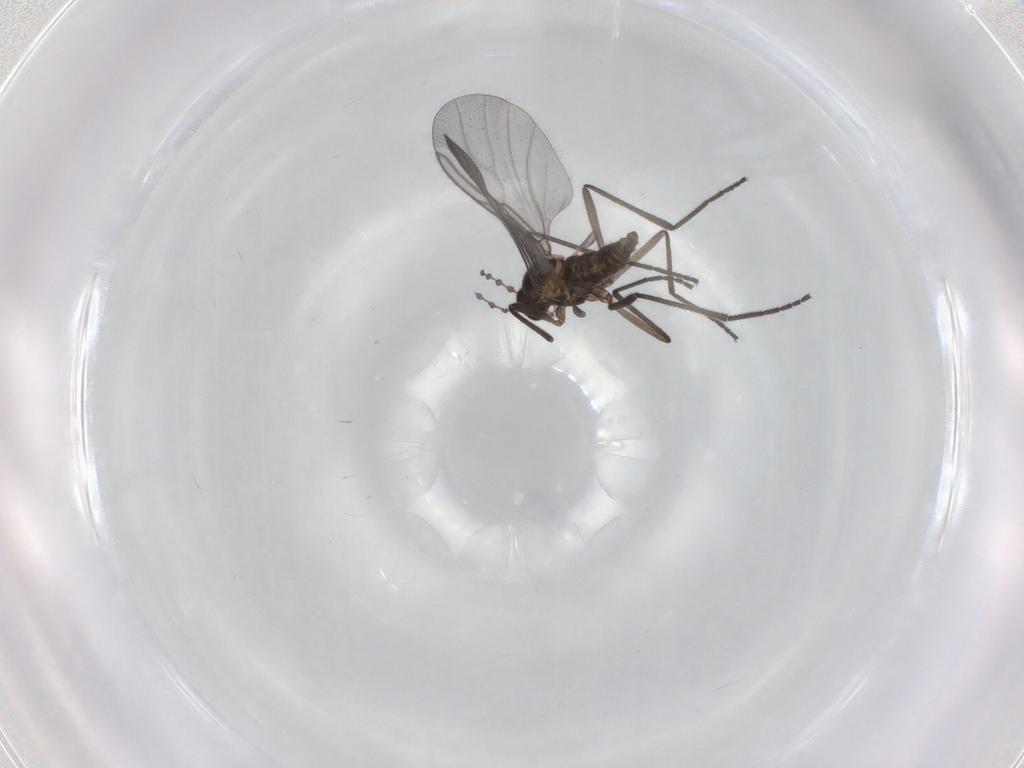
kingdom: Animalia
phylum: Arthropoda
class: Insecta
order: Diptera
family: Cecidomyiidae
